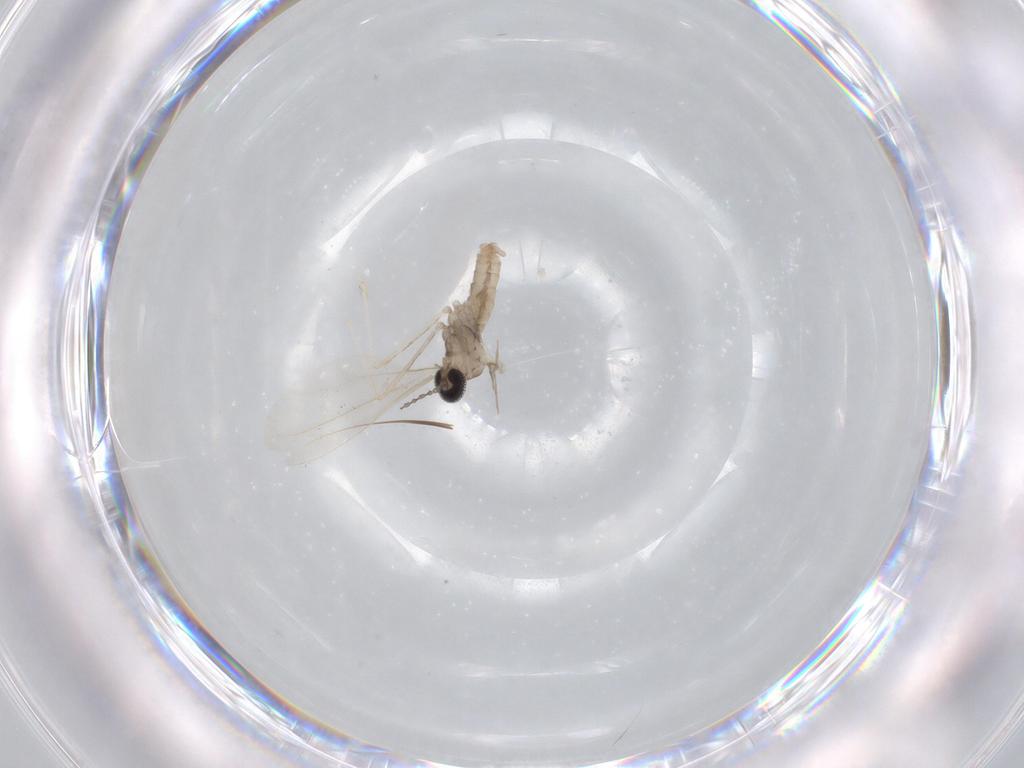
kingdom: Animalia
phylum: Arthropoda
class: Insecta
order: Diptera
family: Cecidomyiidae
